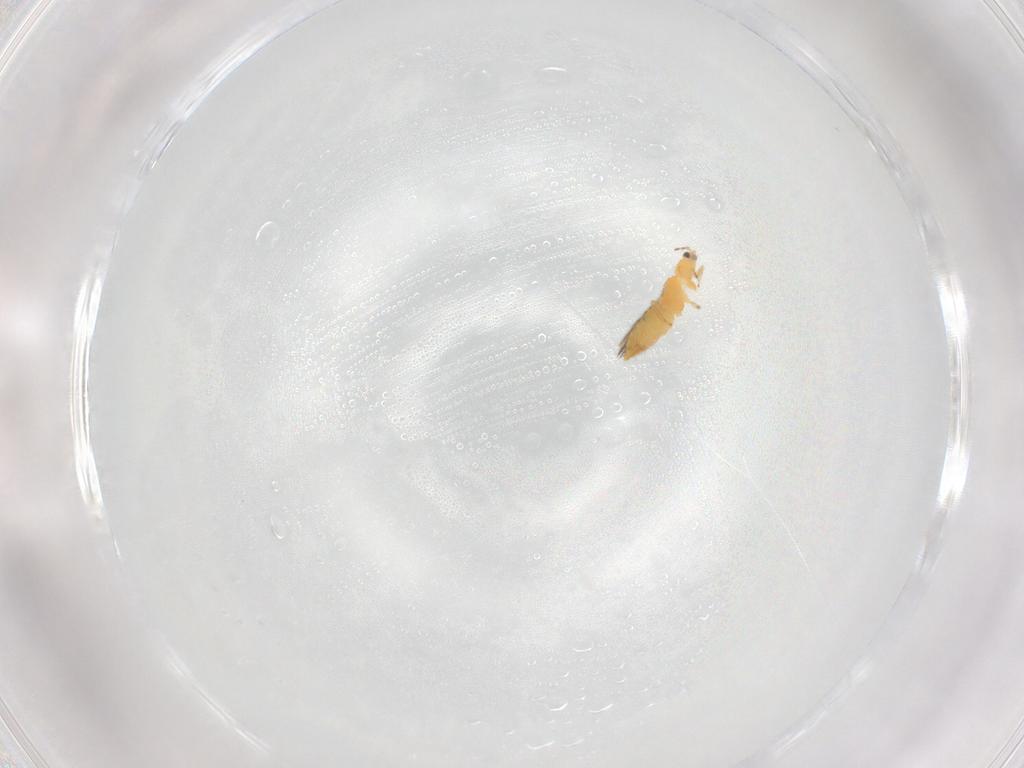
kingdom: Animalia
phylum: Arthropoda
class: Insecta
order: Thysanoptera
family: Thripidae
